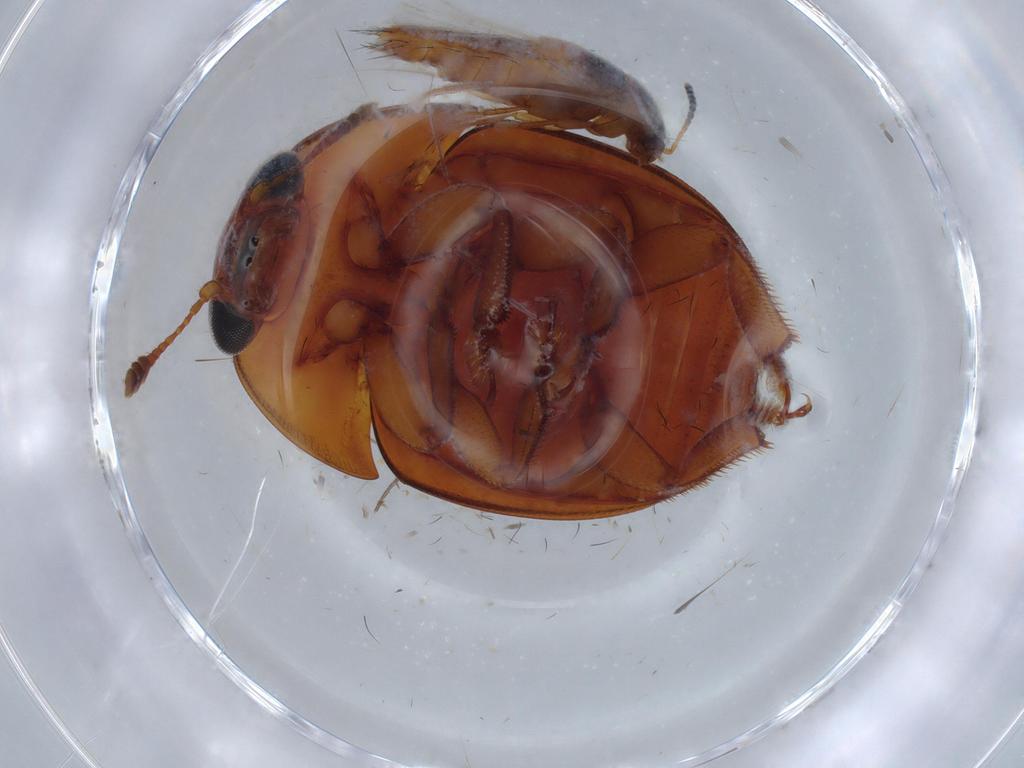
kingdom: Animalia
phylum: Arthropoda
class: Insecta
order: Coleoptera
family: Nitidulidae
